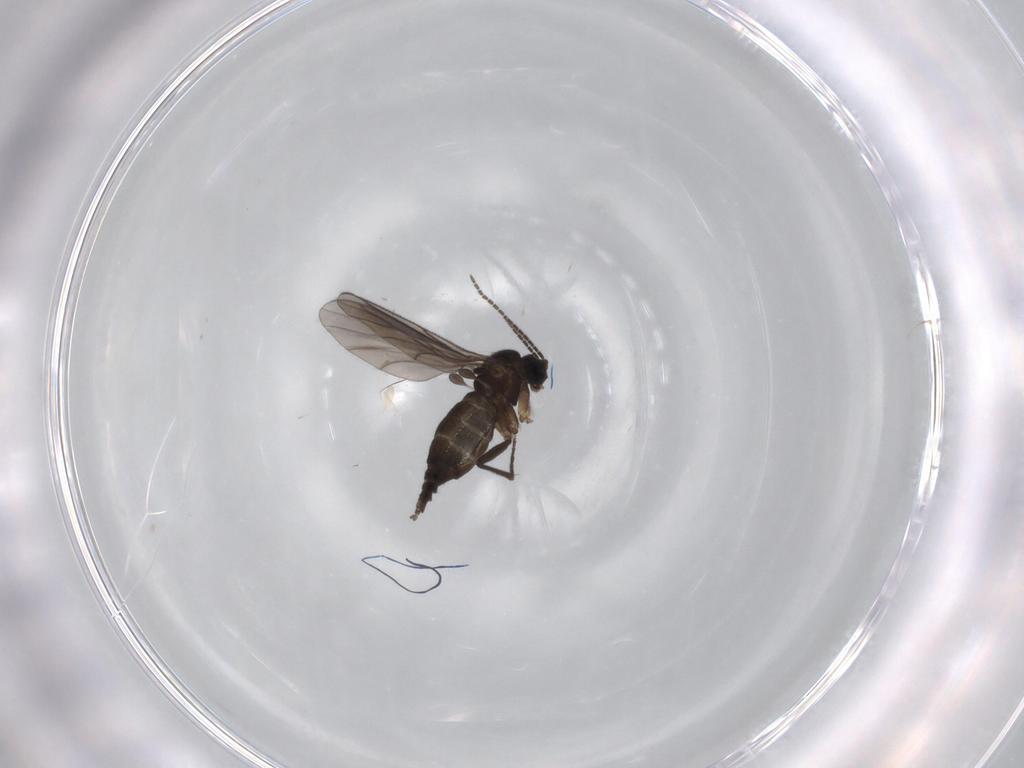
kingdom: Animalia
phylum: Arthropoda
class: Insecta
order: Diptera
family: Sciaridae
